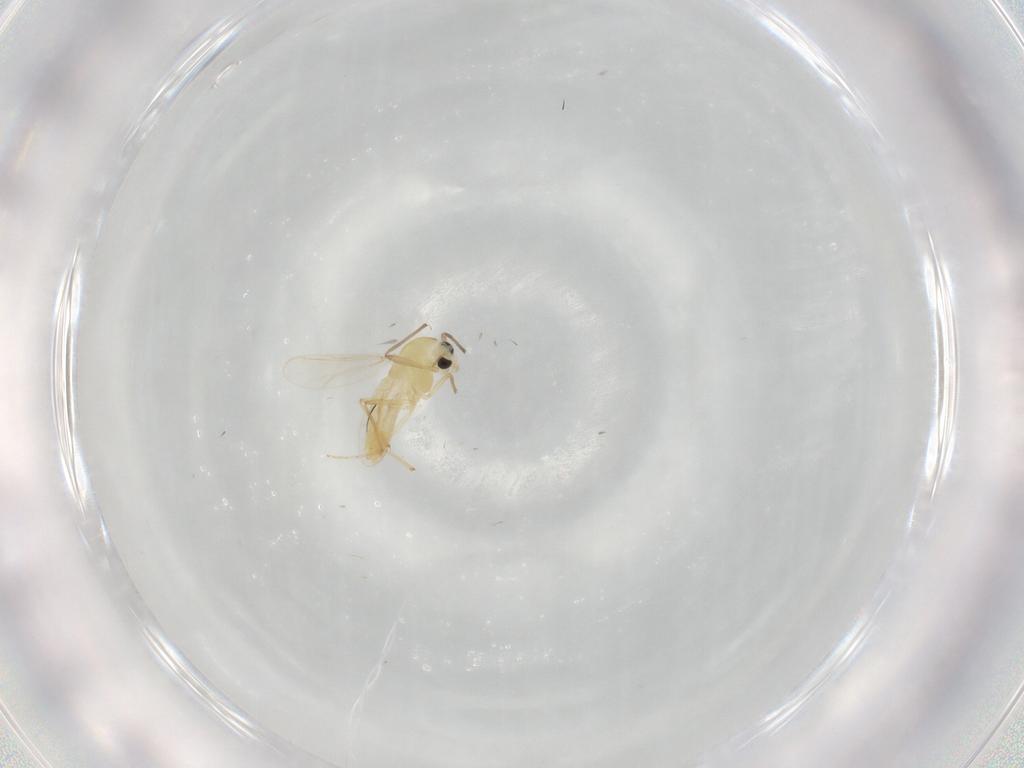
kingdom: Animalia
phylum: Arthropoda
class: Insecta
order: Diptera
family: Chironomidae
